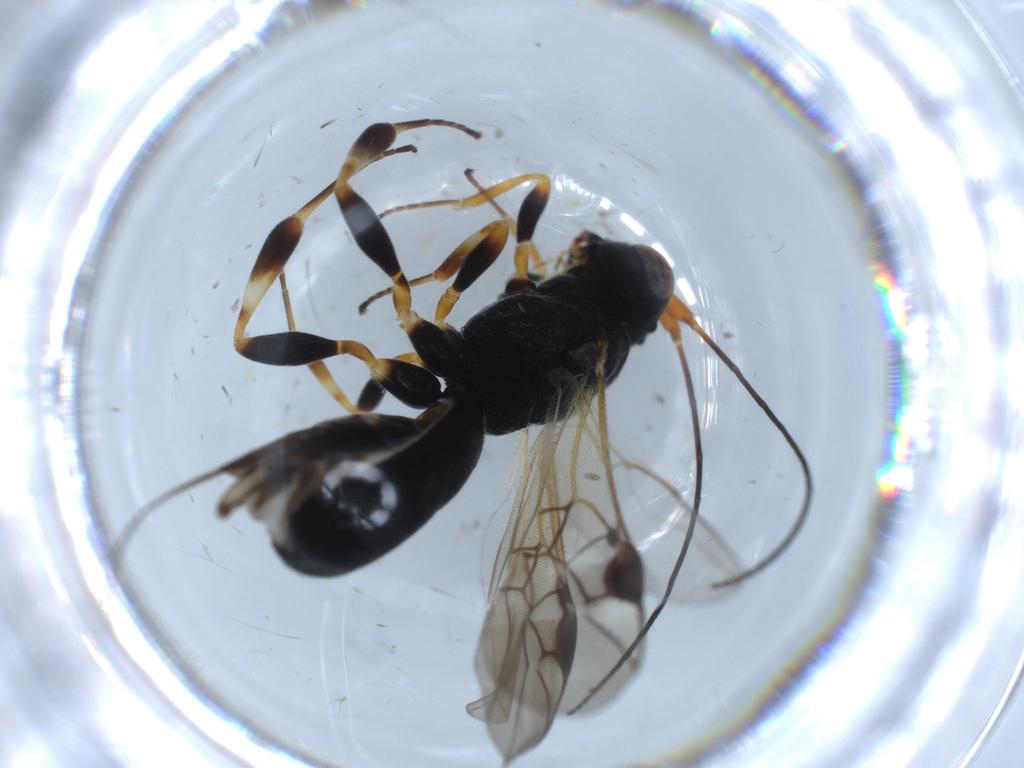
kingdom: Animalia
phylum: Arthropoda
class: Insecta
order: Hymenoptera
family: Braconidae
